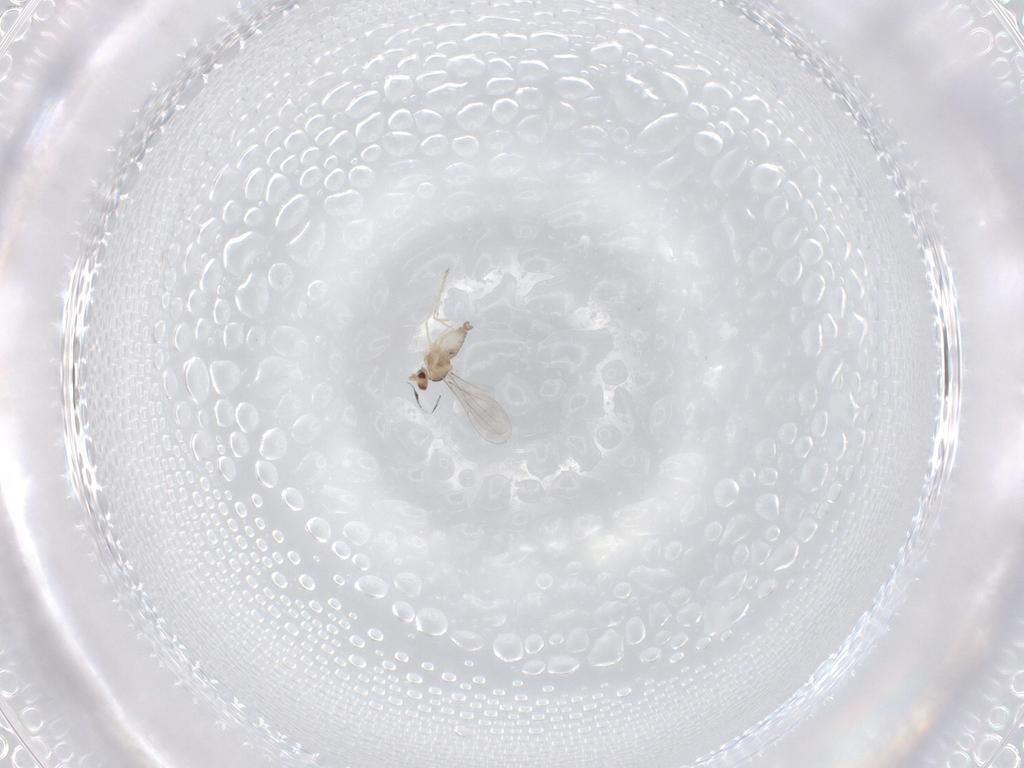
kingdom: Animalia
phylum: Arthropoda
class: Insecta
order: Diptera
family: Cecidomyiidae
